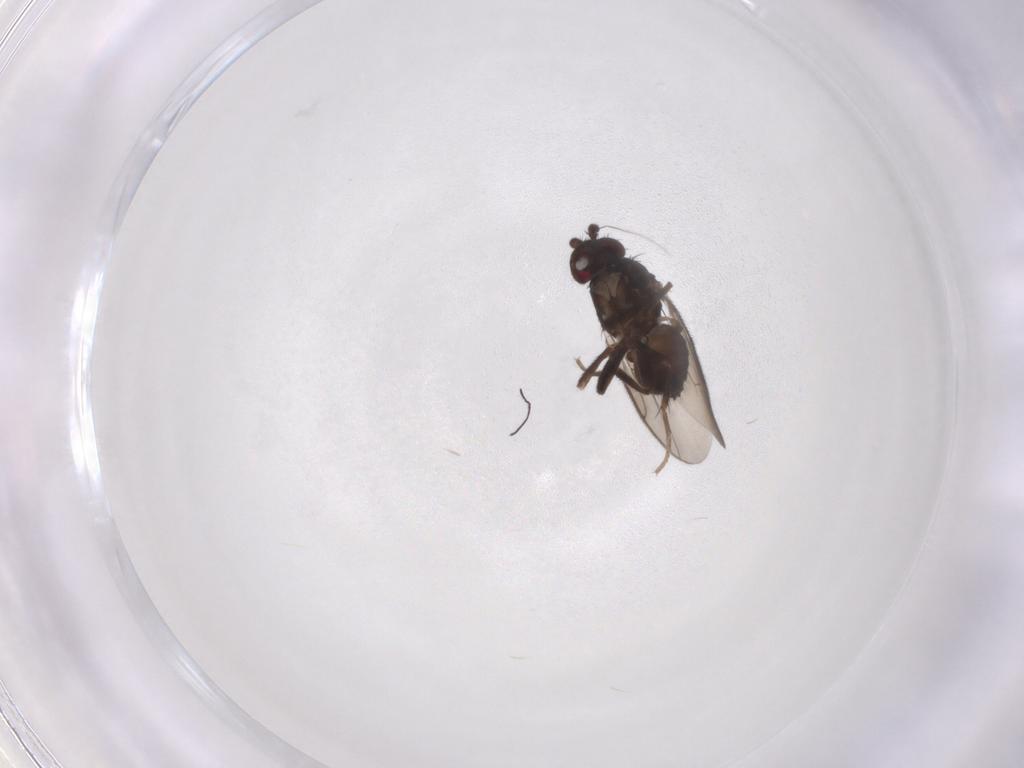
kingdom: Animalia
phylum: Arthropoda
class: Insecta
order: Diptera
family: Sphaeroceridae
